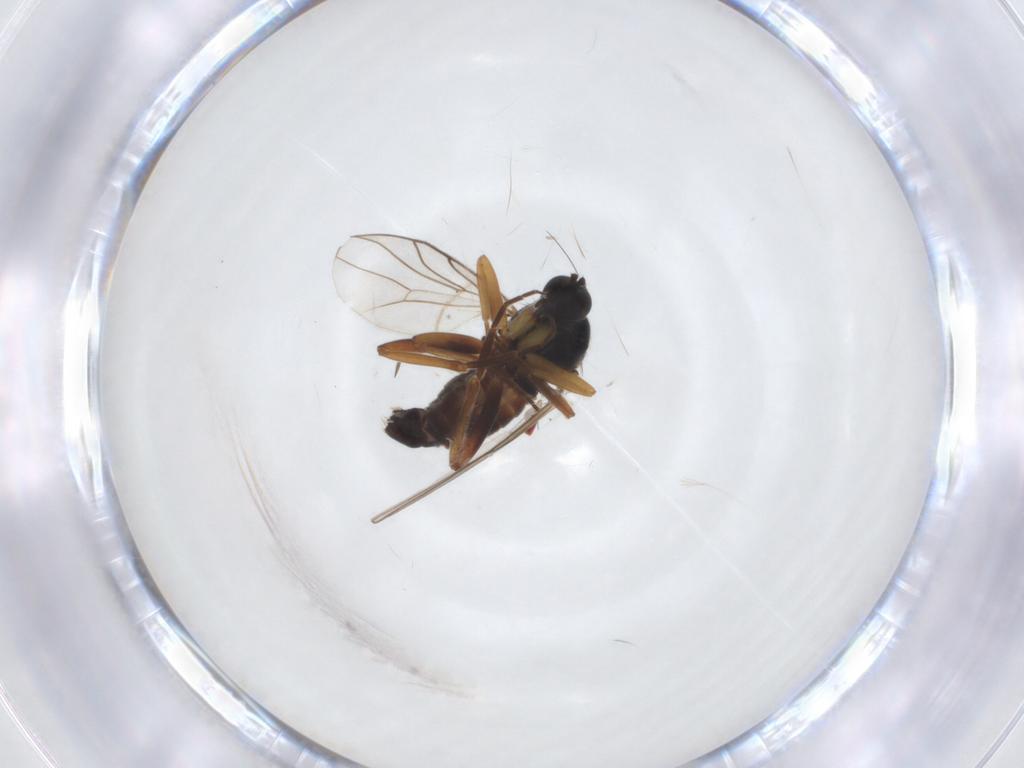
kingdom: Animalia
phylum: Arthropoda
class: Insecta
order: Diptera
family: Hybotidae
